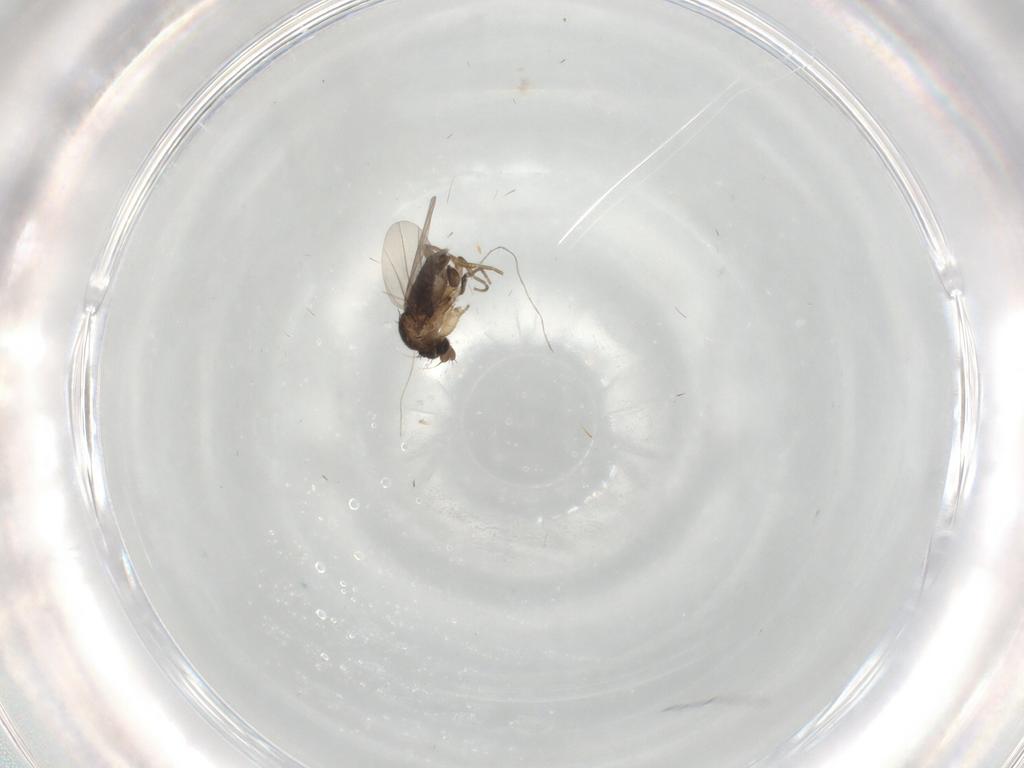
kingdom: Animalia
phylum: Arthropoda
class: Insecta
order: Diptera
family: Cecidomyiidae
